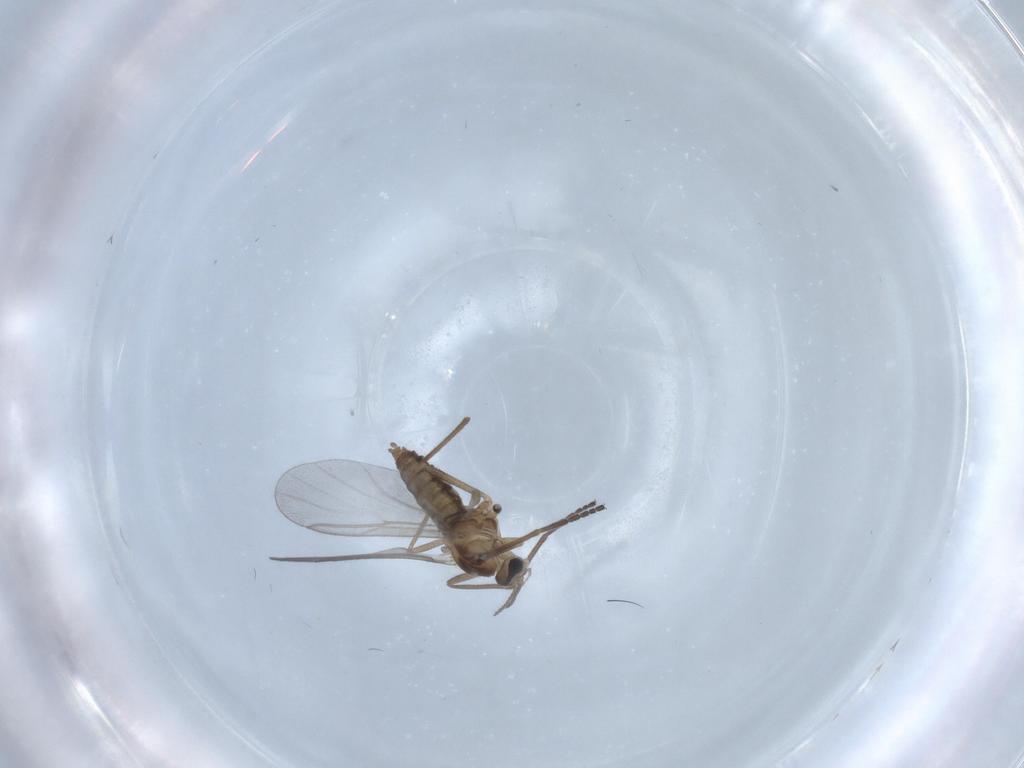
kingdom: Animalia
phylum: Arthropoda
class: Insecta
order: Diptera
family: Cecidomyiidae
